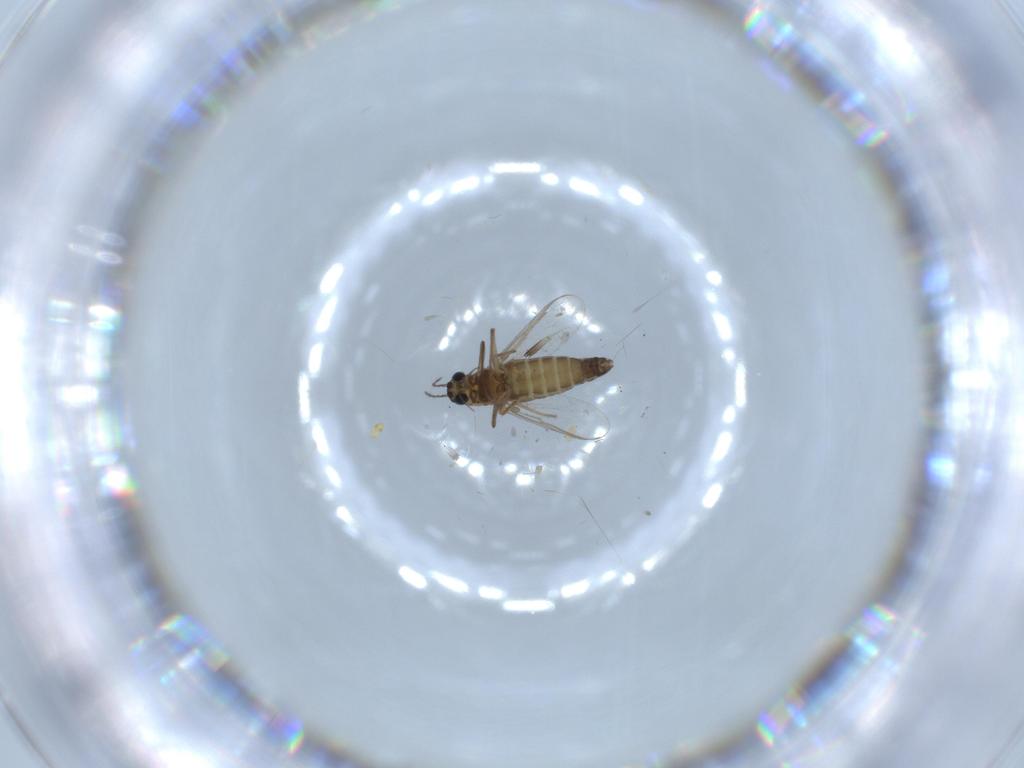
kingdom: Animalia
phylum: Arthropoda
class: Insecta
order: Diptera
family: Chironomidae
